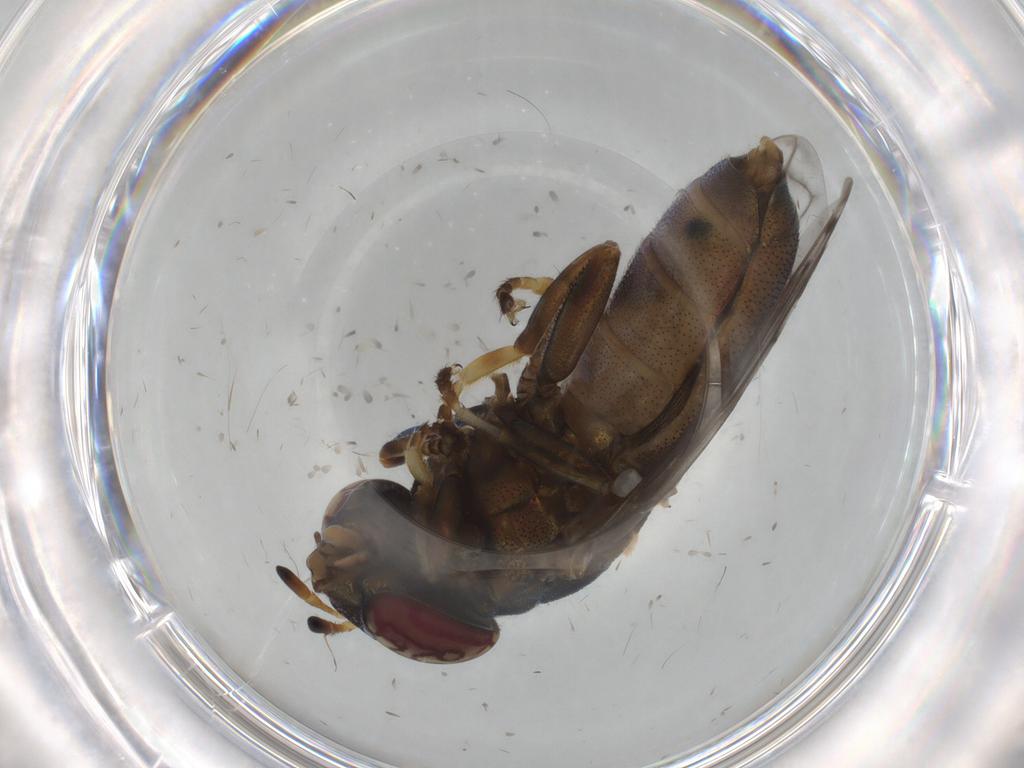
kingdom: Animalia
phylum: Arthropoda
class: Insecta
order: Diptera
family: Syrphidae
